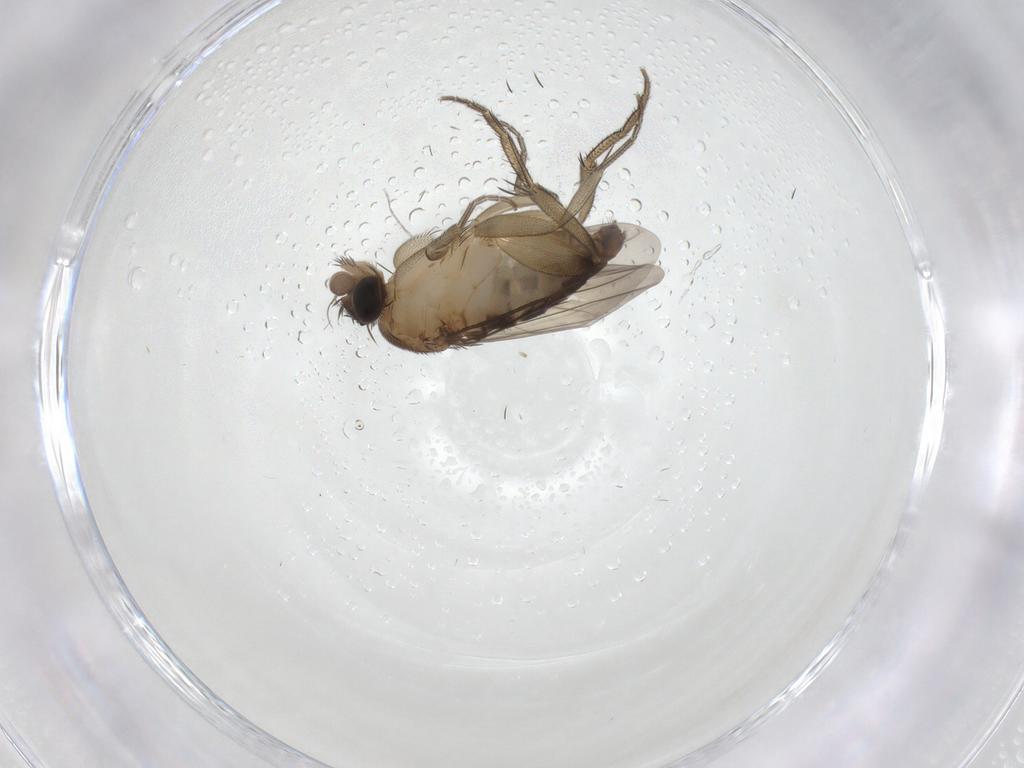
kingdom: Animalia
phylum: Arthropoda
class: Insecta
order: Diptera
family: Phoridae
